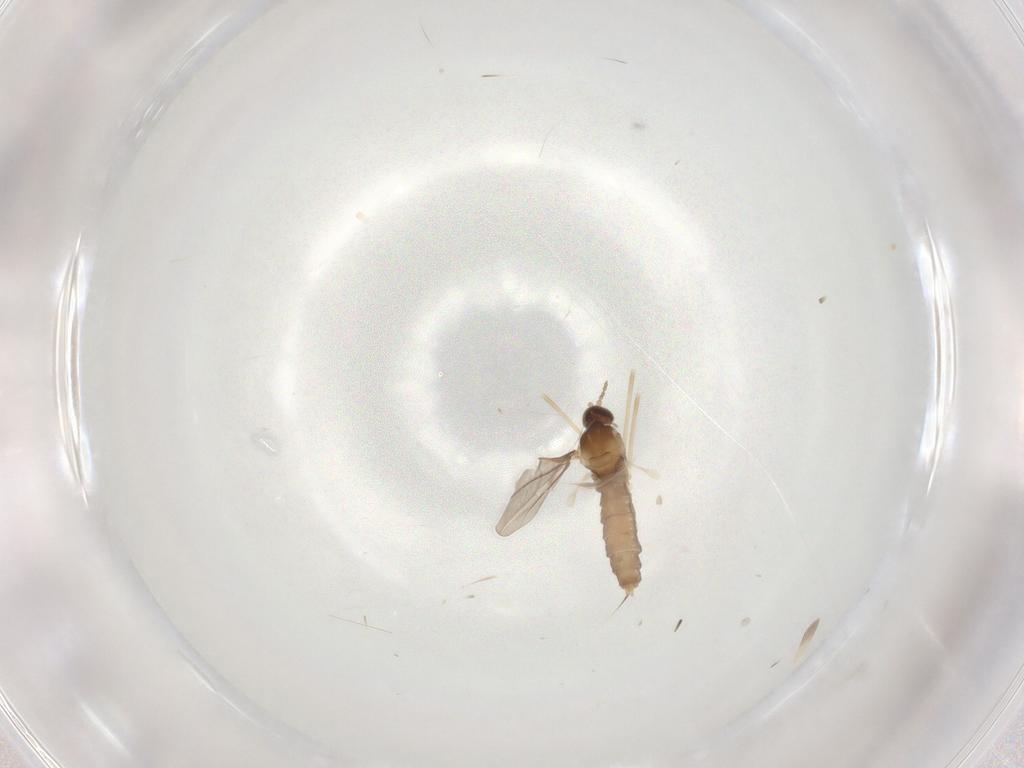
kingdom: Animalia
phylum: Arthropoda
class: Insecta
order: Diptera
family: Cecidomyiidae
